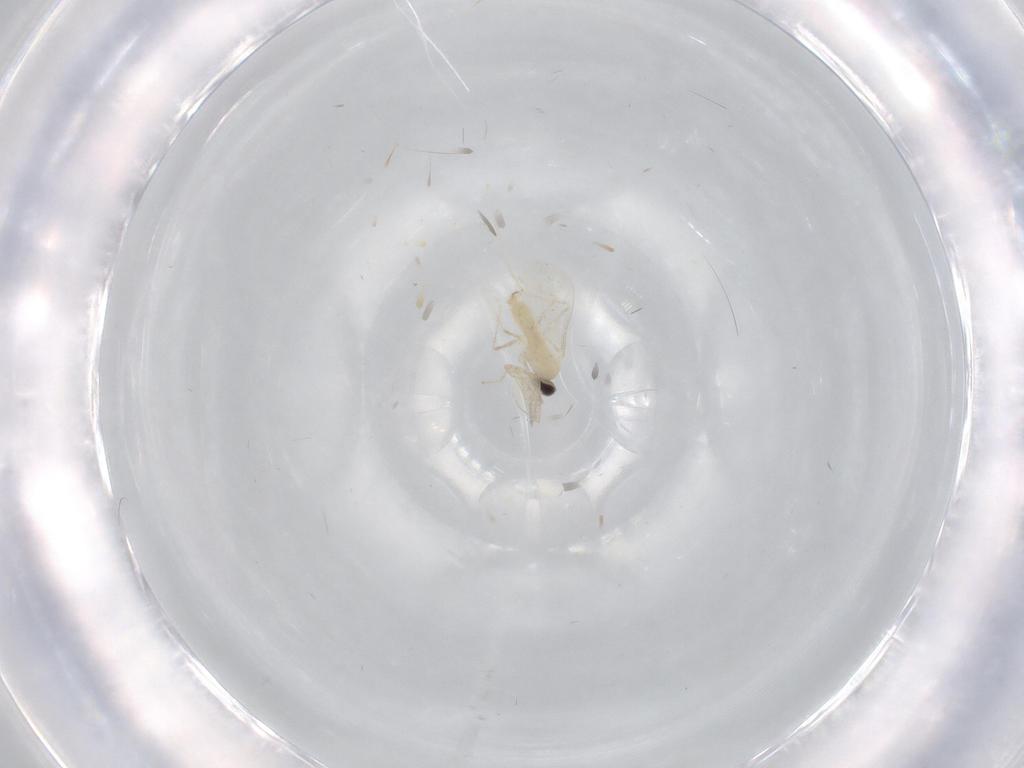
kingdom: Animalia
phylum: Arthropoda
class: Insecta
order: Diptera
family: Cecidomyiidae
